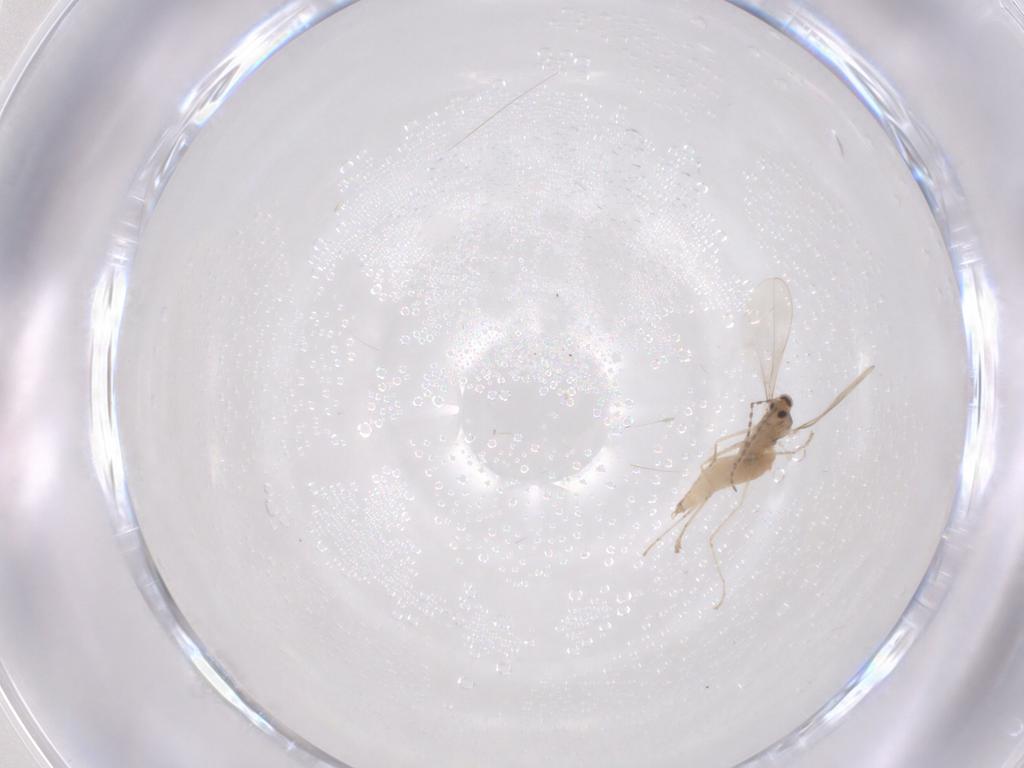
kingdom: Animalia
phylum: Arthropoda
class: Insecta
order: Diptera
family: Cecidomyiidae
